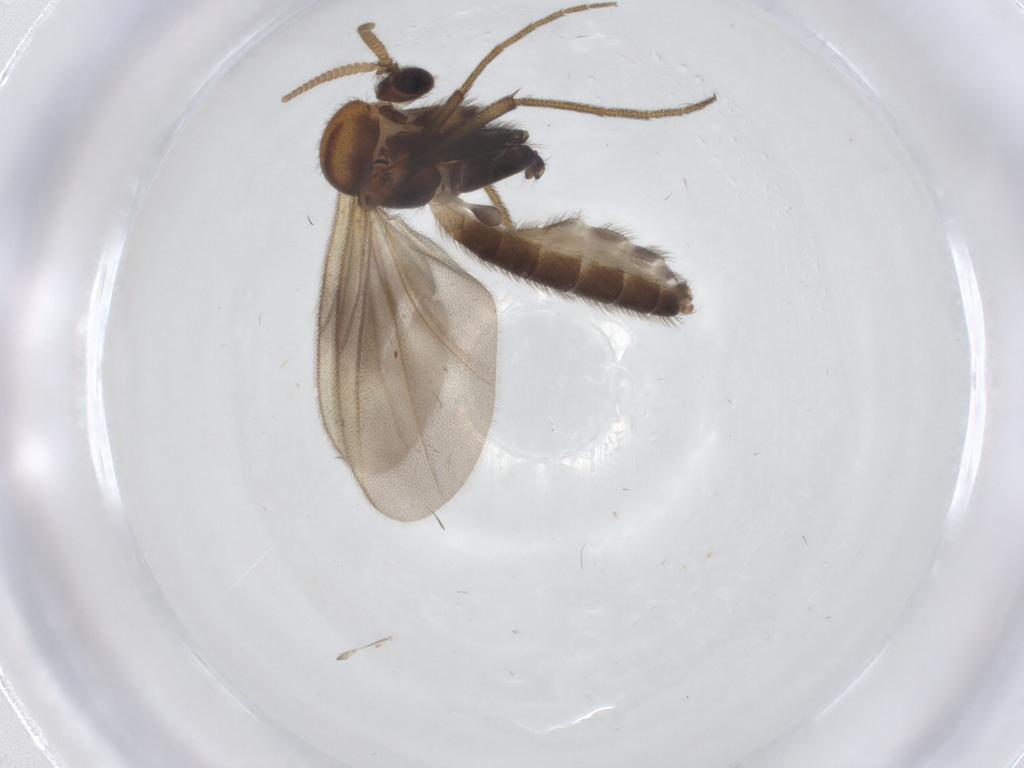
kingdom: Animalia
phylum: Arthropoda
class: Insecta
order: Diptera
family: Mycetophilidae
